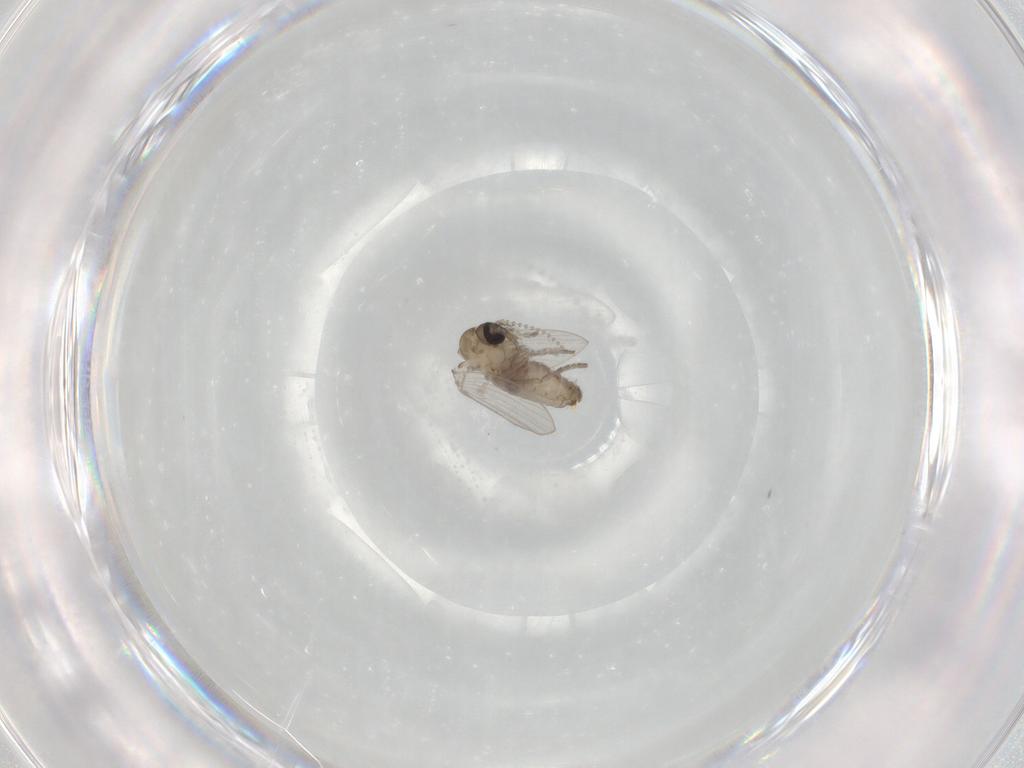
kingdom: Animalia
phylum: Arthropoda
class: Insecta
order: Diptera
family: Psychodidae
